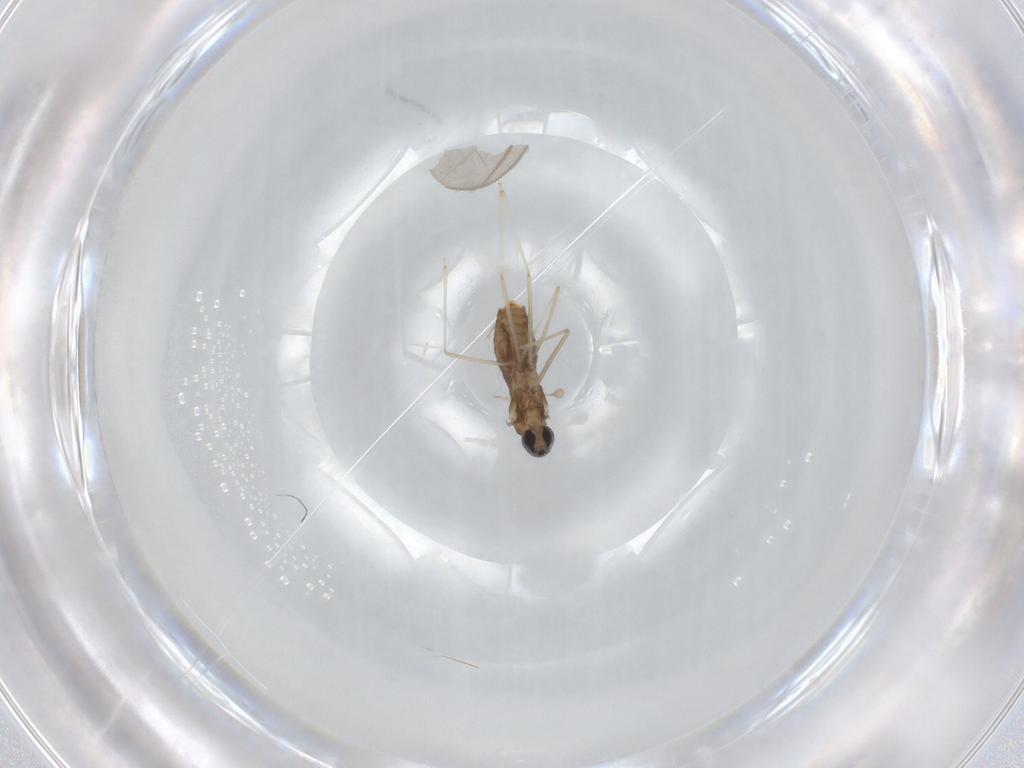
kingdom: Animalia
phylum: Arthropoda
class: Insecta
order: Diptera
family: Cecidomyiidae
